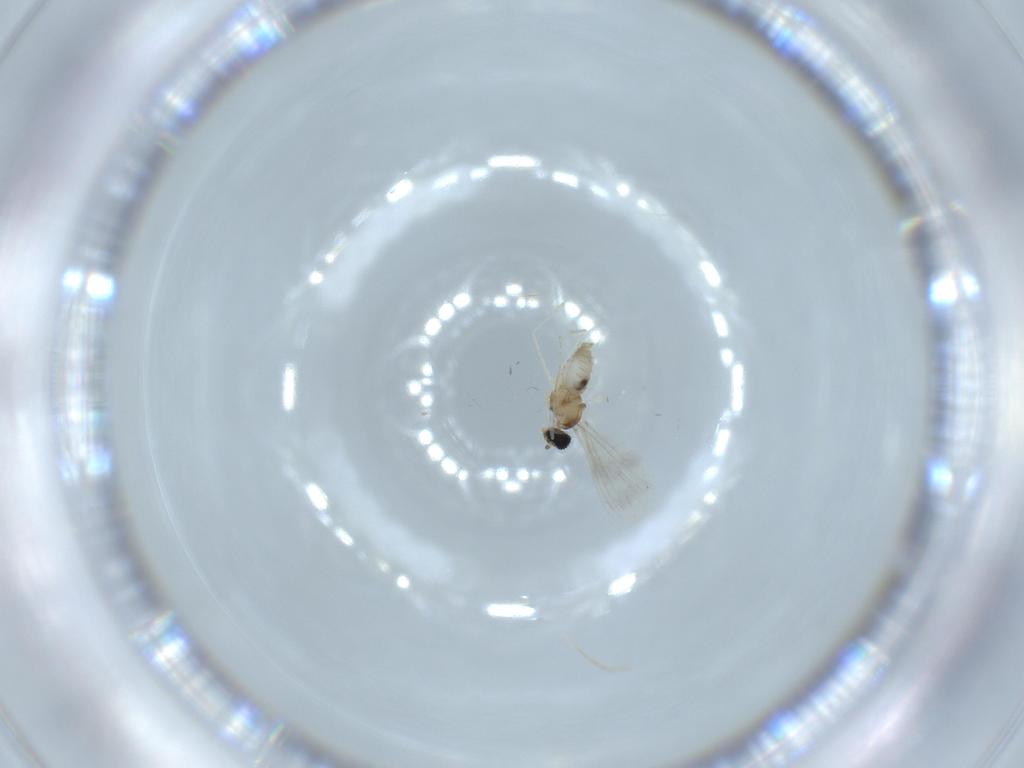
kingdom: Animalia
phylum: Arthropoda
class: Insecta
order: Diptera
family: Cecidomyiidae
